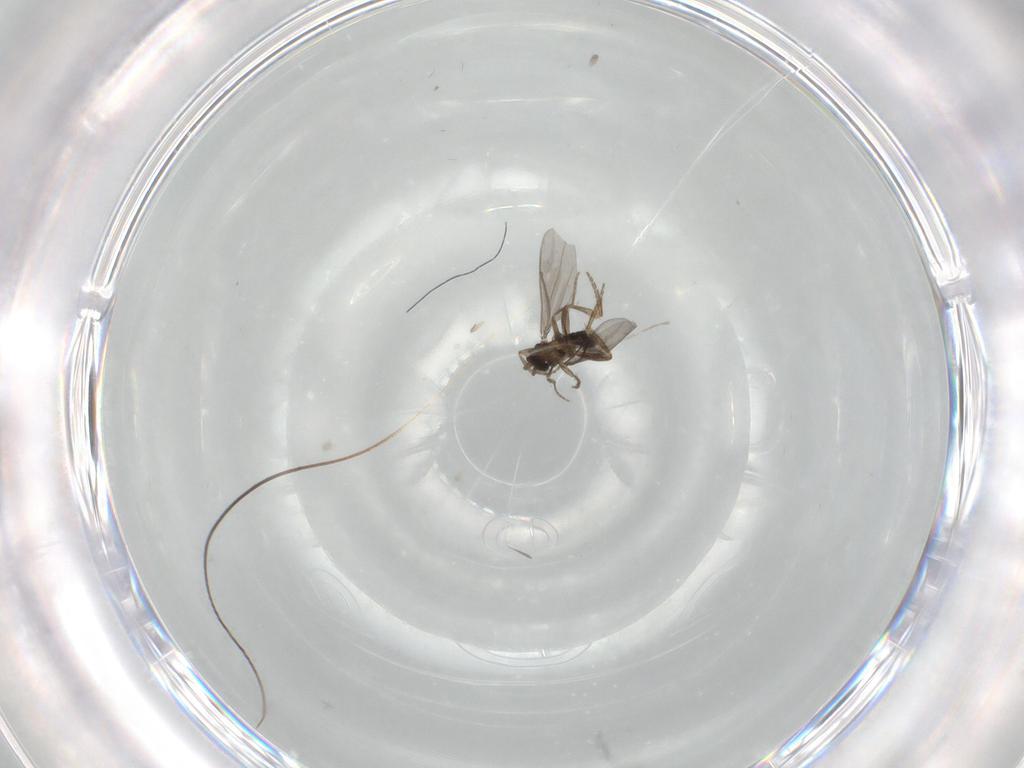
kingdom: Animalia
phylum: Arthropoda
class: Insecta
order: Diptera
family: Phoridae
